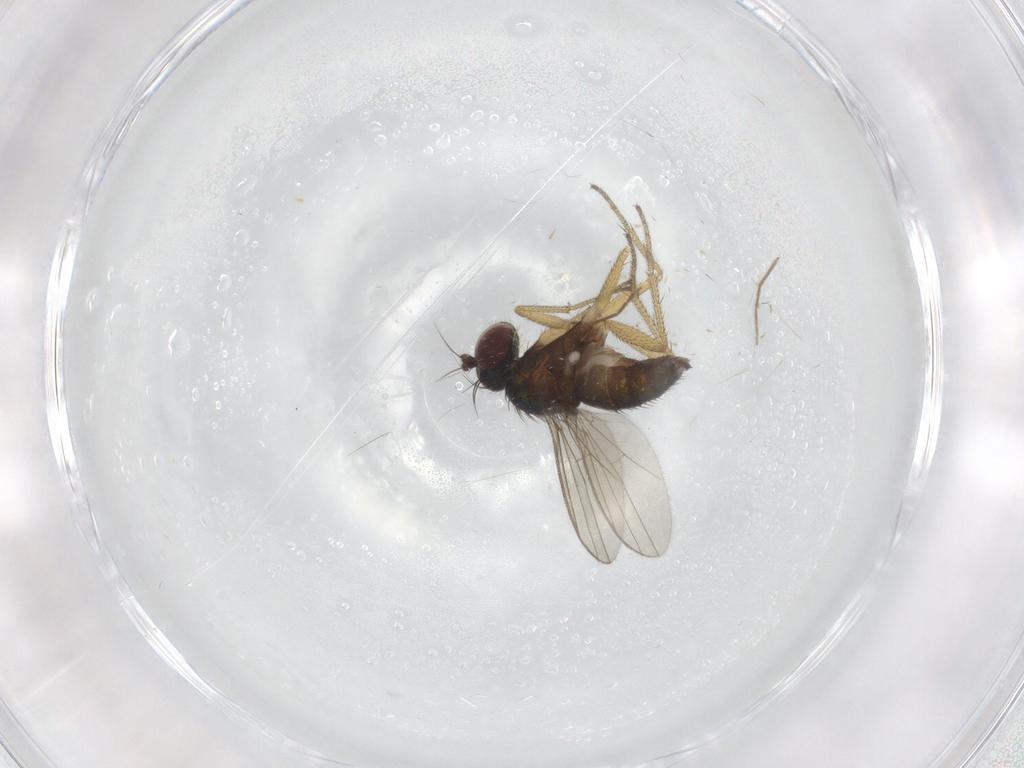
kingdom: Animalia
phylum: Arthropoda
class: Insecta
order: Diptera
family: Dolichopodidae
